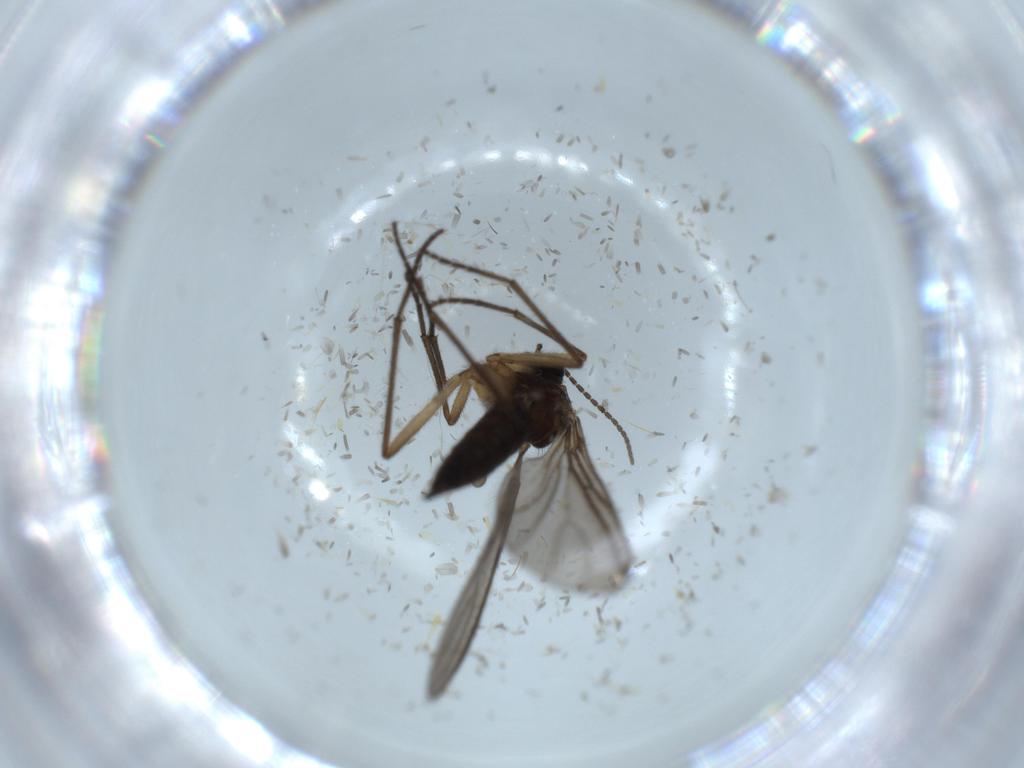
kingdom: Animalia
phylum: Arthropoda
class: Insecta
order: Diptera
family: Sciaridae
